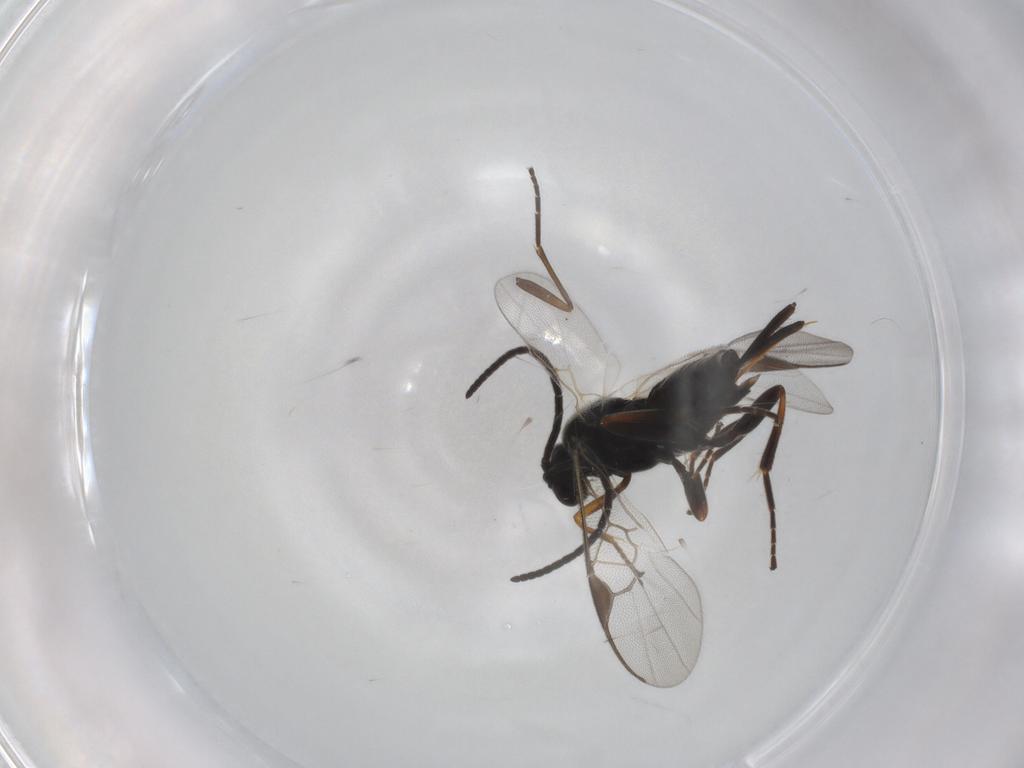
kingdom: Animalia
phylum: Arthropoda
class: Insecta
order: Hymenoptera
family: Braconidae
